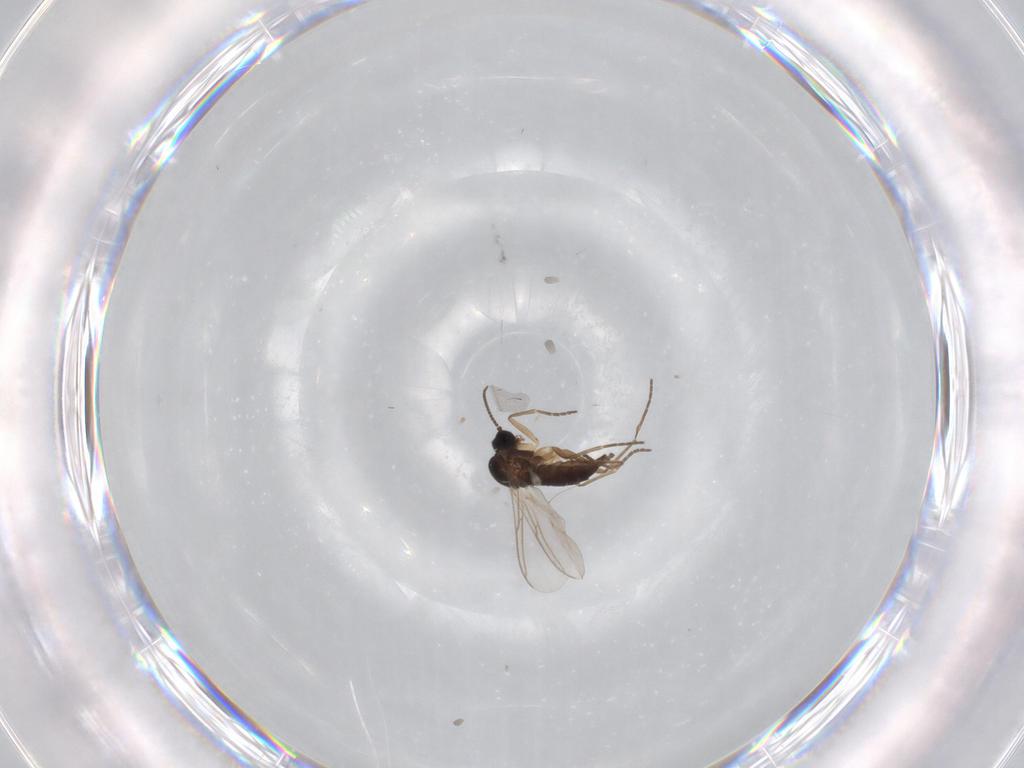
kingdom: Animalia
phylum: Arthropoda
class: Insecta
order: Diptera
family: Sciaridae
